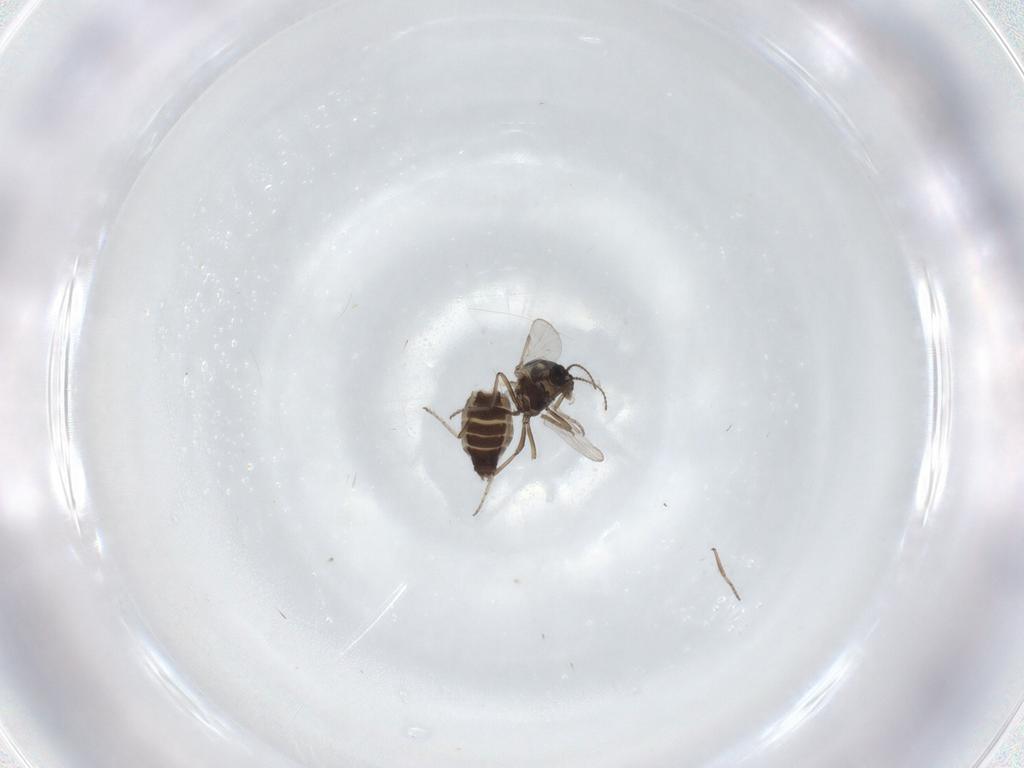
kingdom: Animalia
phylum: Arthropoda
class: Insecta
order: Diptera
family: Ceratopogonidae
